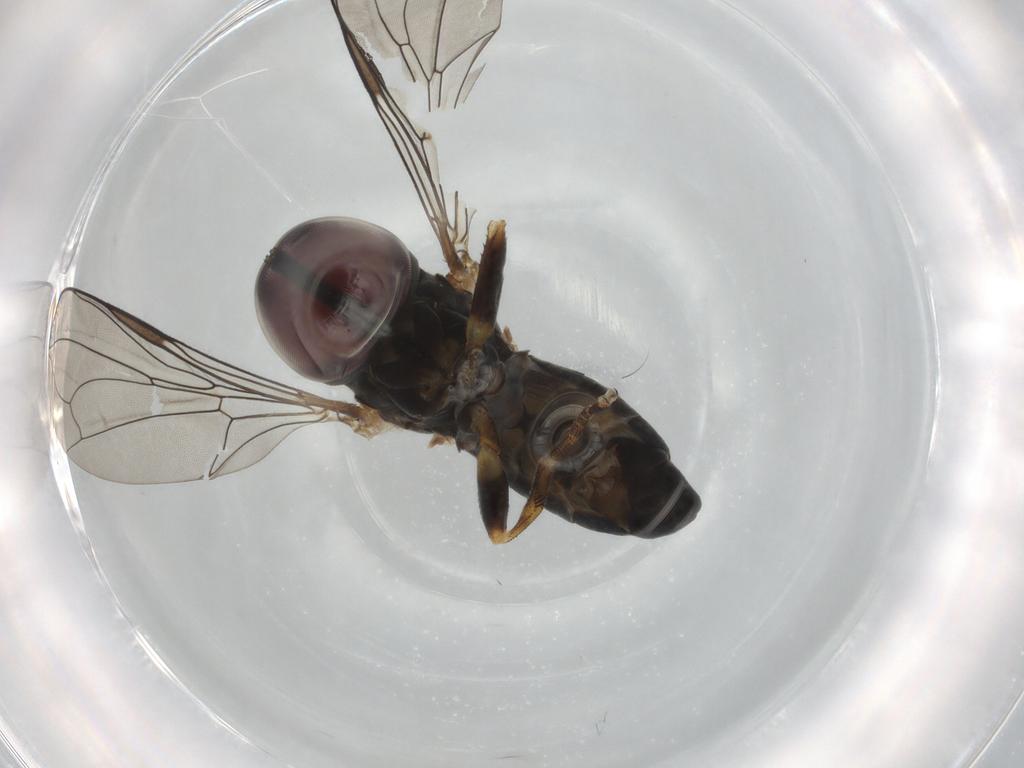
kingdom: Animalia
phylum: Arthropoda
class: Insecta
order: Diptera
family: Pipunculidae
